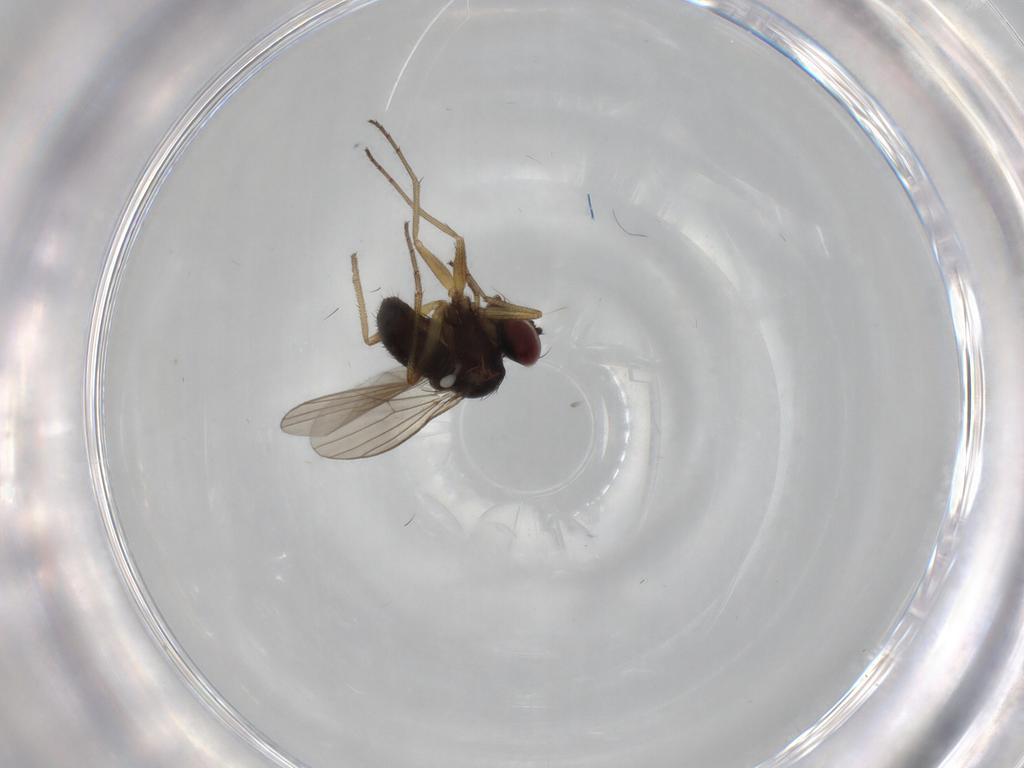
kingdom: Animalia
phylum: Arthropoda
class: Insecta
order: Diptera
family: Dolichopodidae
